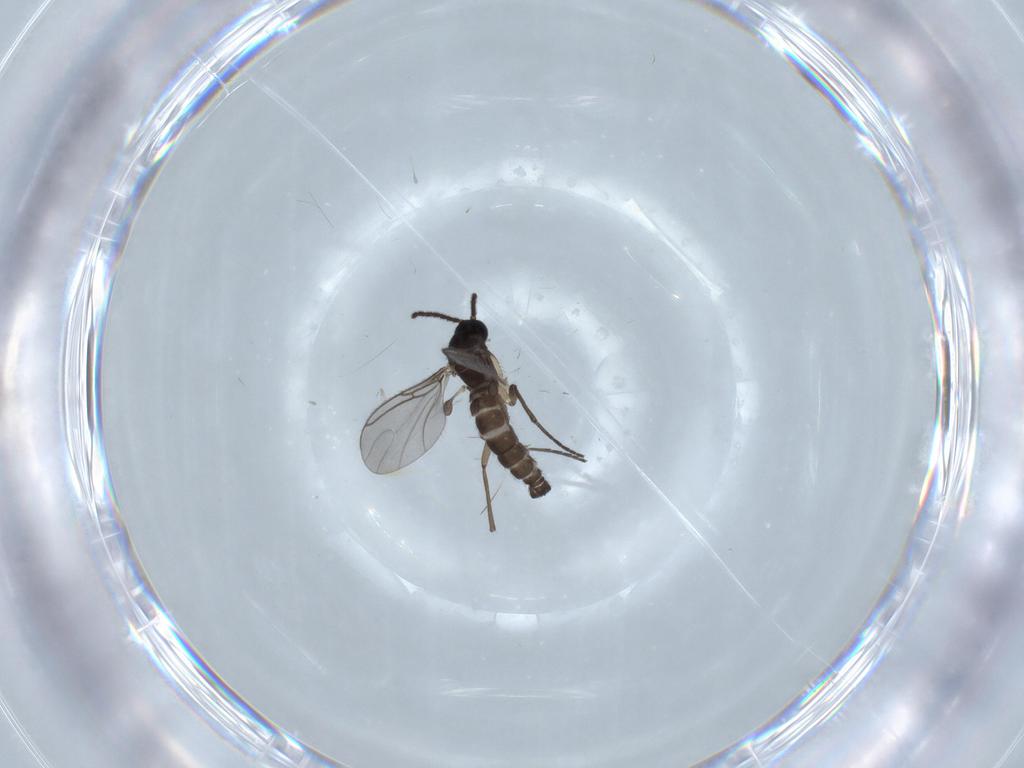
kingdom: Animalia
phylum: Arthropoda
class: Insecta
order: Diptera
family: Sciaridae
